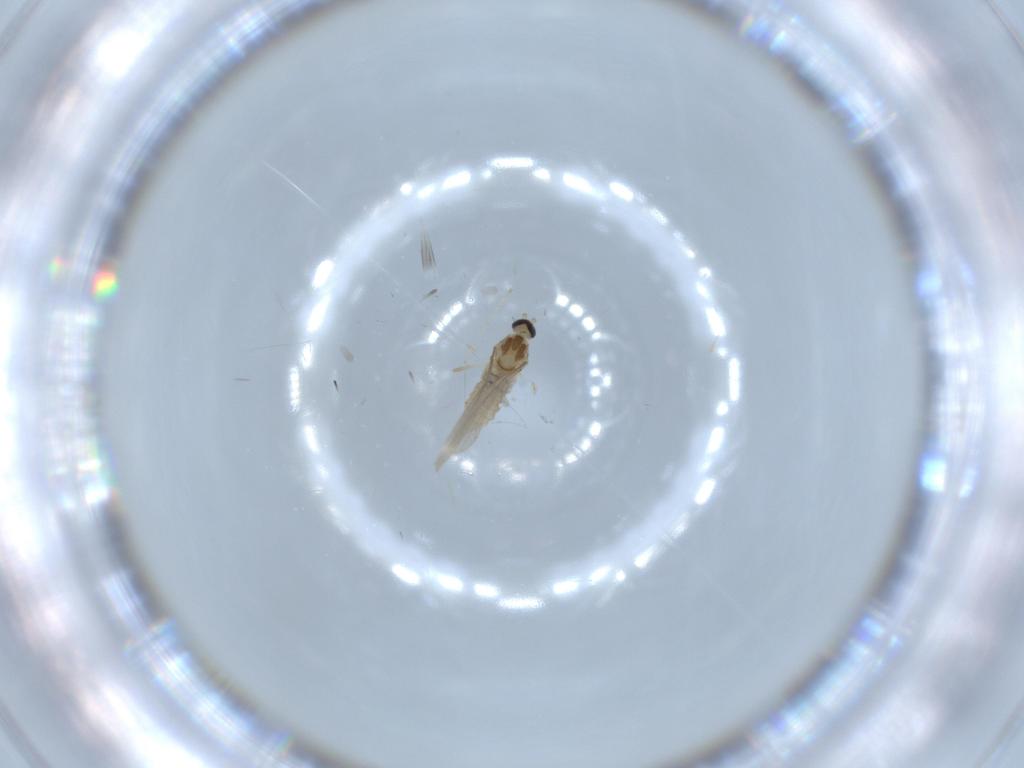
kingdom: Animalia
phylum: Arthropoda
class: Insecta
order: Diptera
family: Cecidomyiidae
